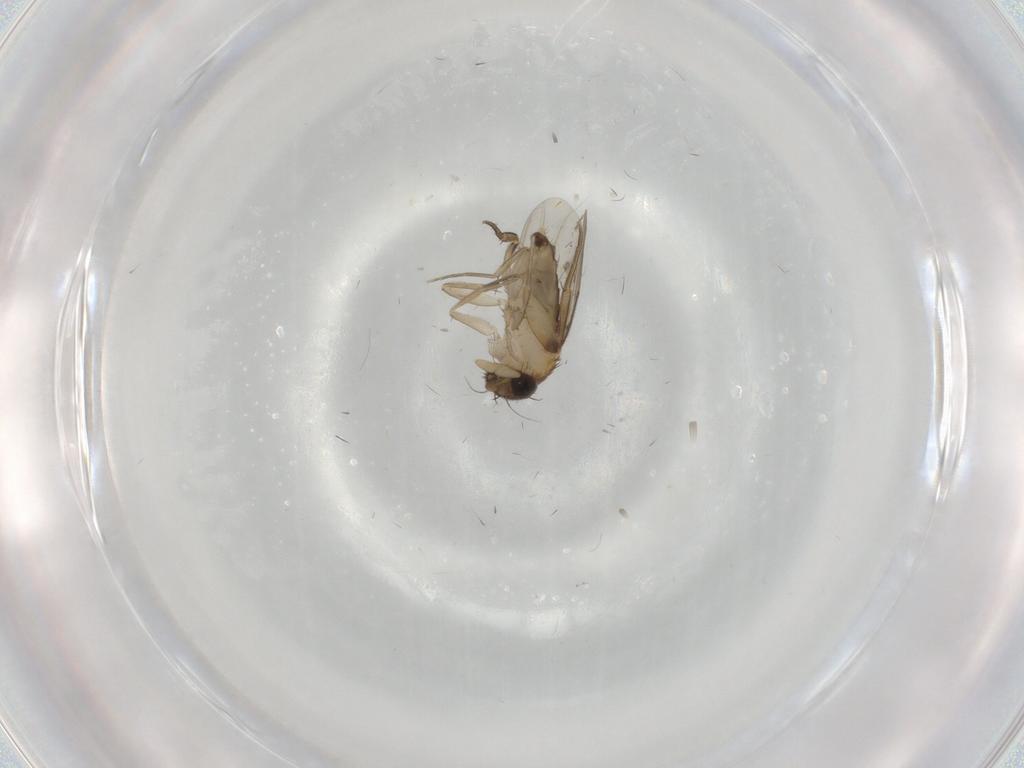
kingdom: Animalia
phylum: Arthropoda
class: Insecta
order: Diptera
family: Phoridae
